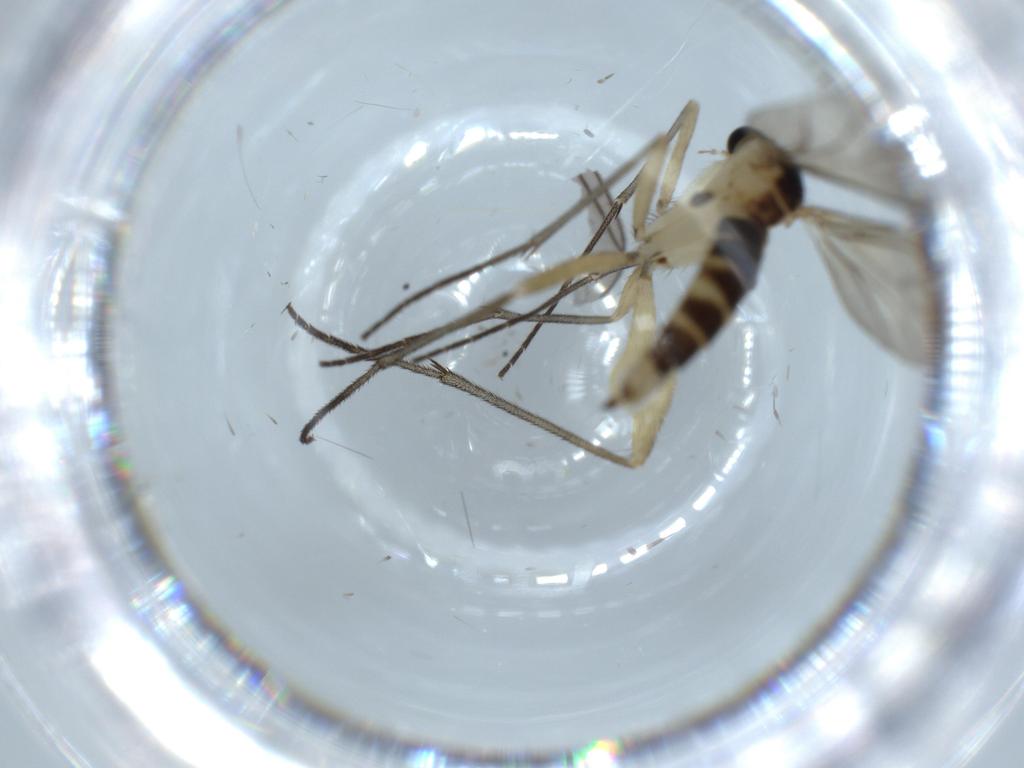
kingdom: Animalia
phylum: Arthropoda
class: Insecta
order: Diptera
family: Sciaridae
